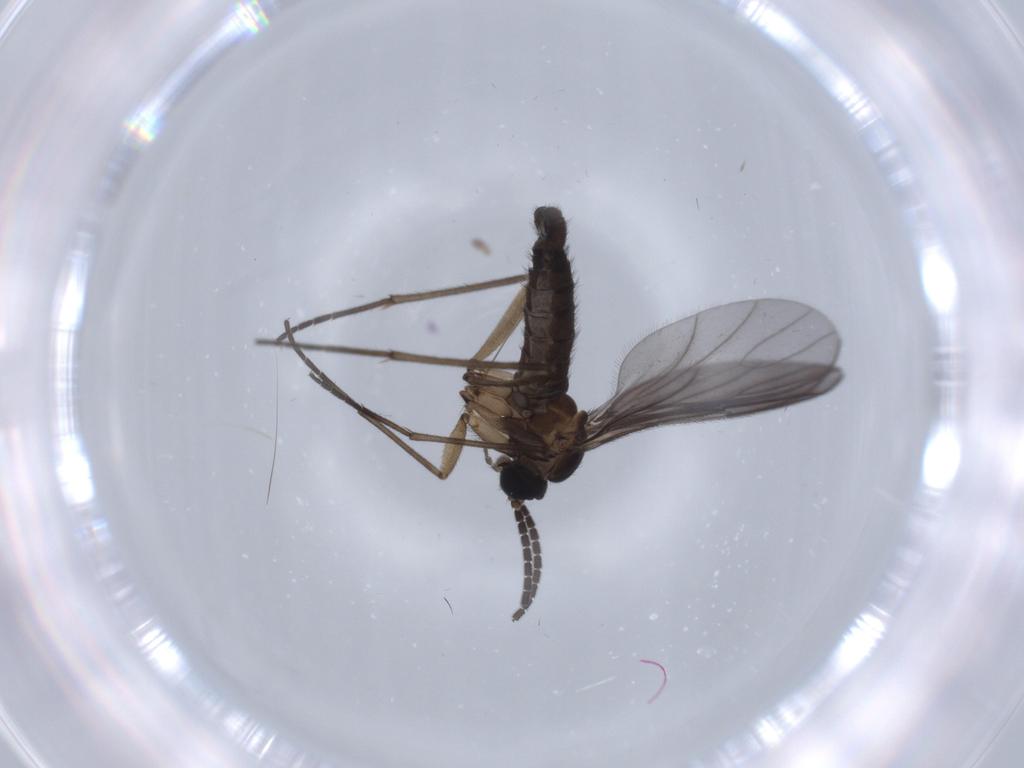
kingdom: Animalia
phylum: Arthropoda
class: Insecta
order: Diptera
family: Sciaridae
